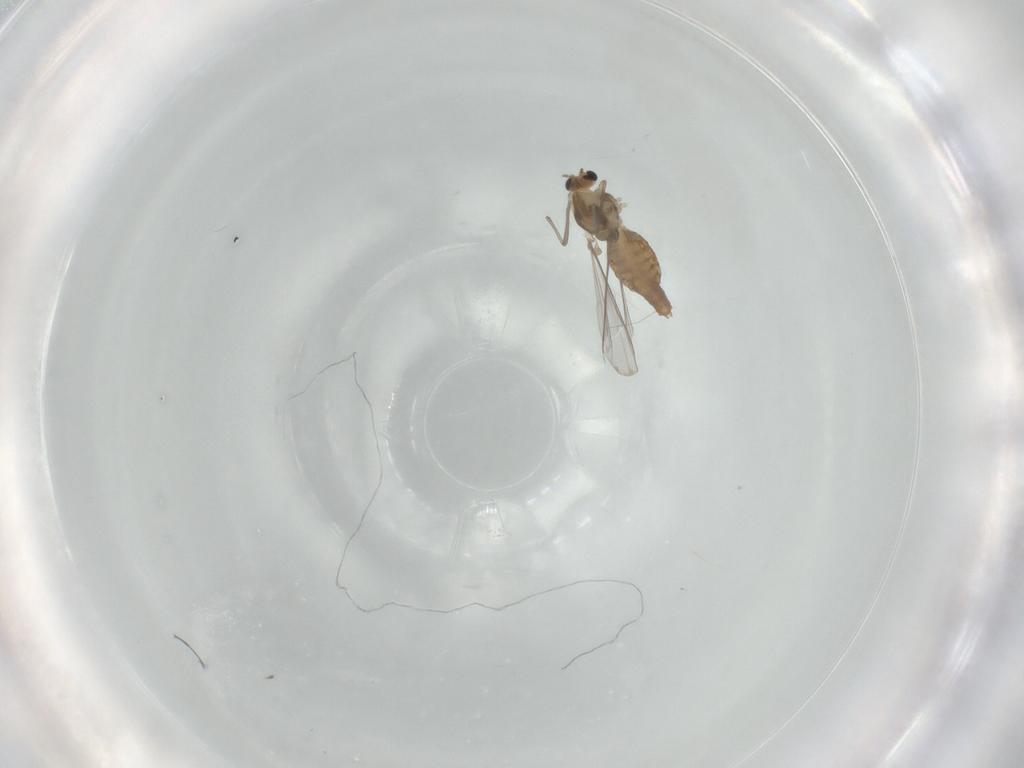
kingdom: Animalia
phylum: Arthropoda
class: Insecta
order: Diptera
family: Chironomidae
